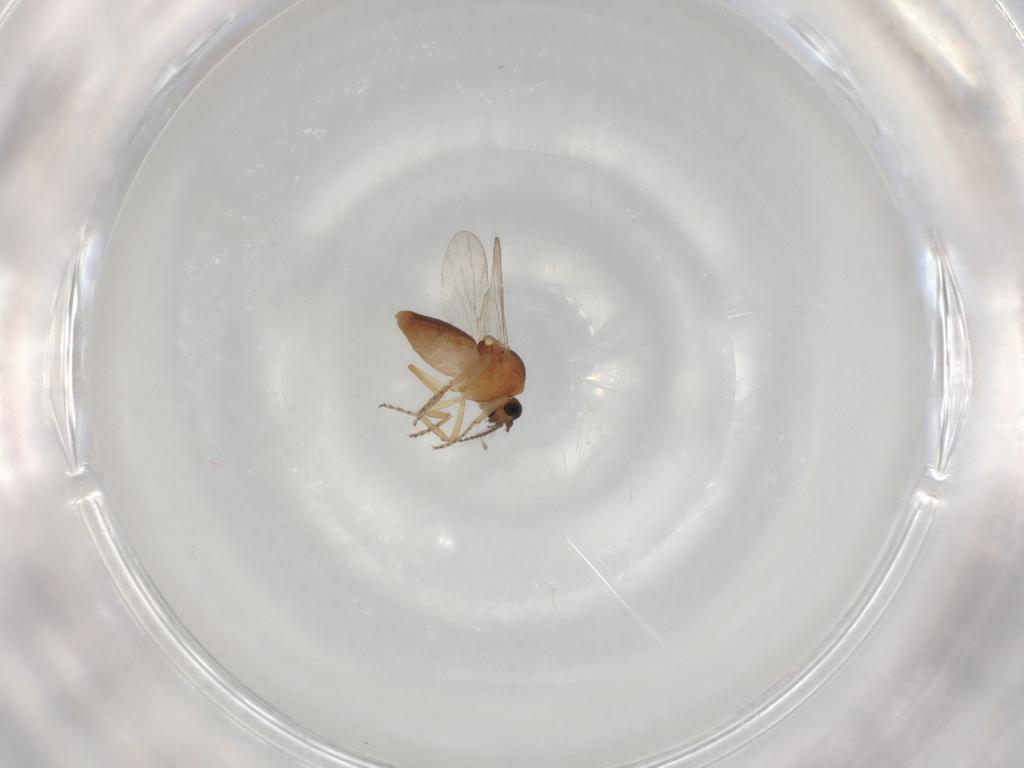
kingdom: Animalia
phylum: Arthropoda
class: Insecta
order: Diptera
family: Ceratopogonidae
